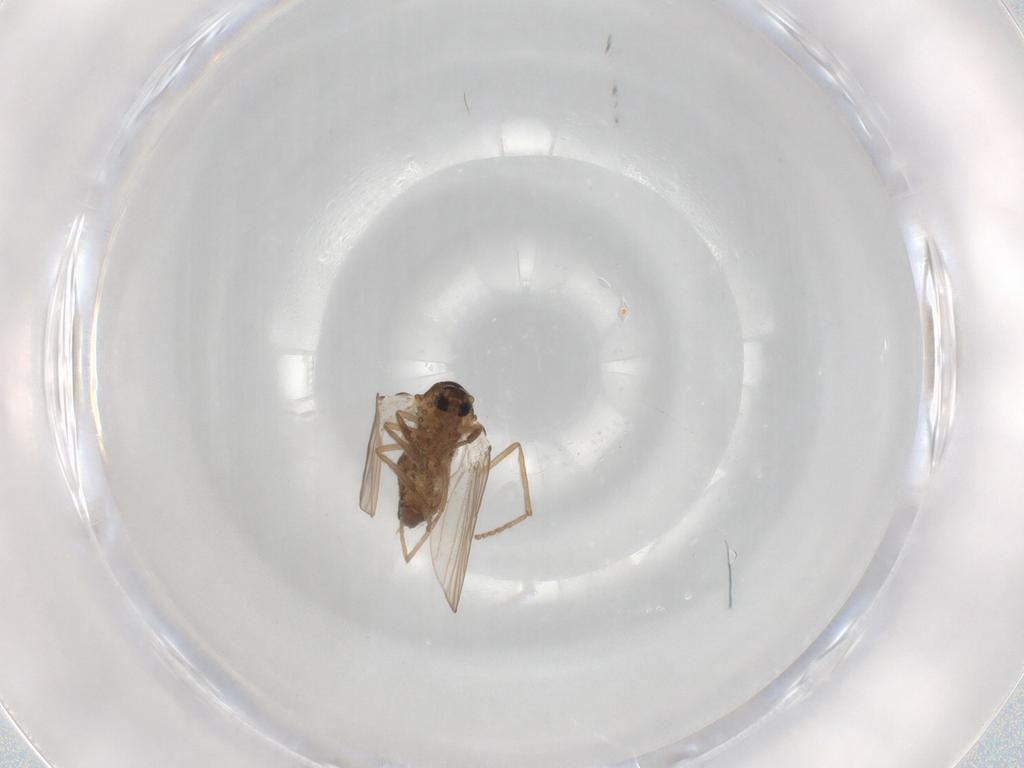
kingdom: Animalia
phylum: Arthropoda
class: Insecta
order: Diptera
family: Psychodidae
